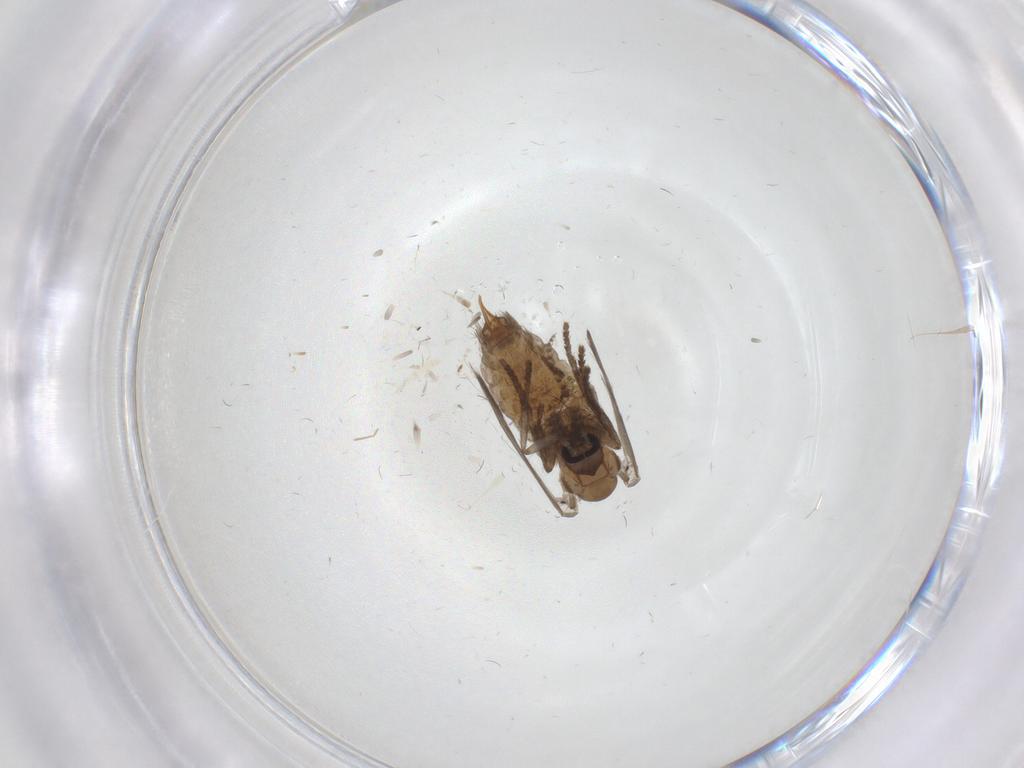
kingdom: Animalia
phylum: Arthropoda
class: Insecta
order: Diptera
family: Psychodidae
